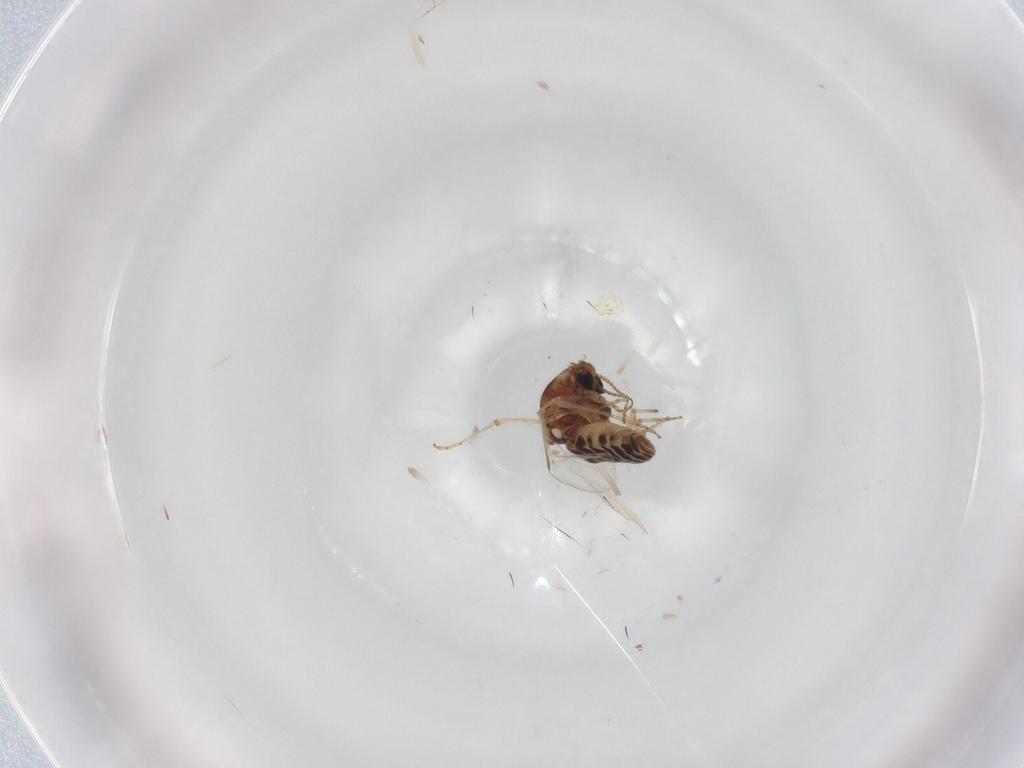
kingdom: Animalia
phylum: Arthropoda
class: Insecta
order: Diptera
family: Ceratopogonidae
